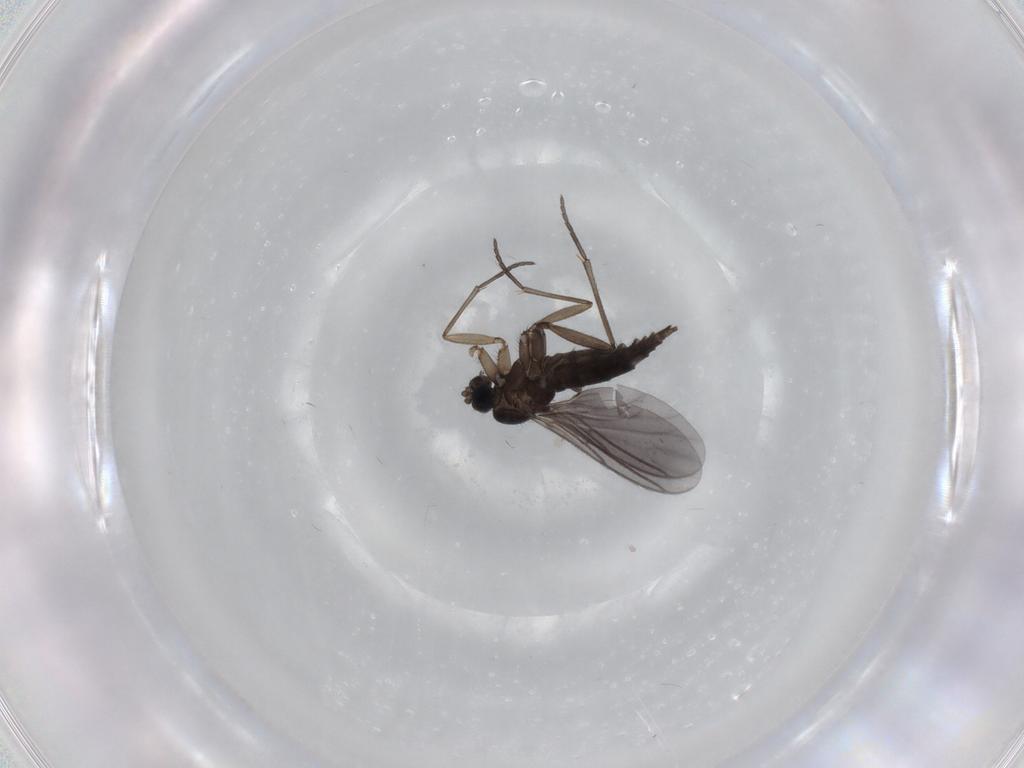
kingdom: Animalia
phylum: Arthropoda
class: Insecta
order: Diptera
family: Sciaridae
